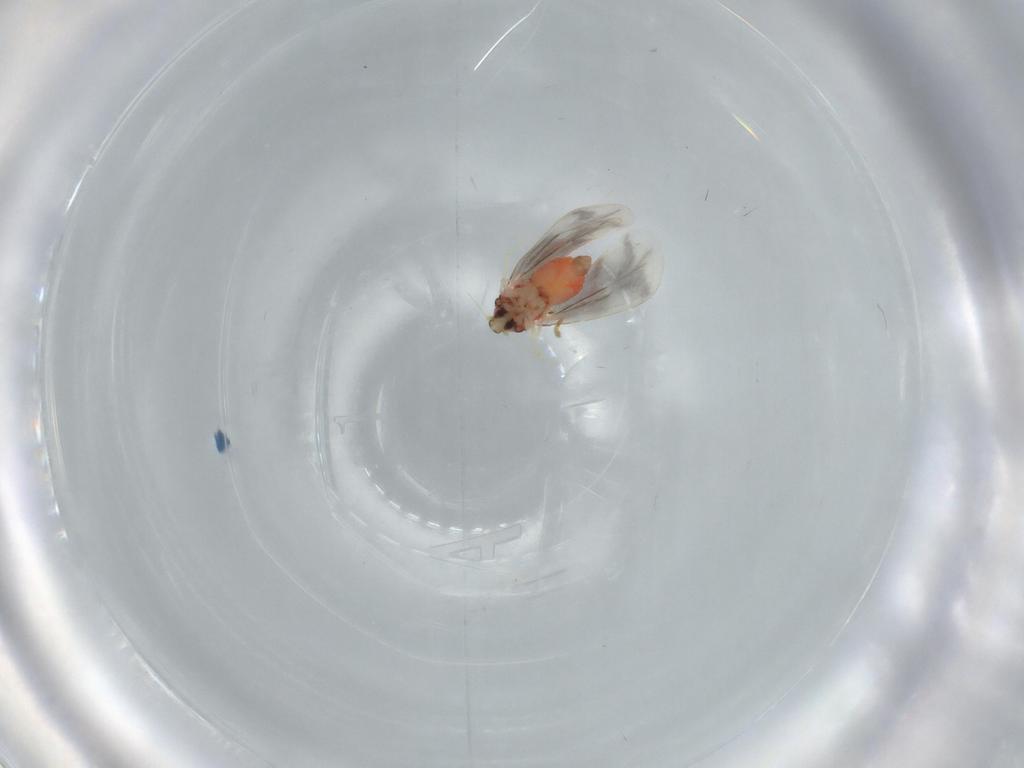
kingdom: Animalia
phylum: Arthropoda
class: Insecta
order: Hemiptera
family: Aleyrodidae
